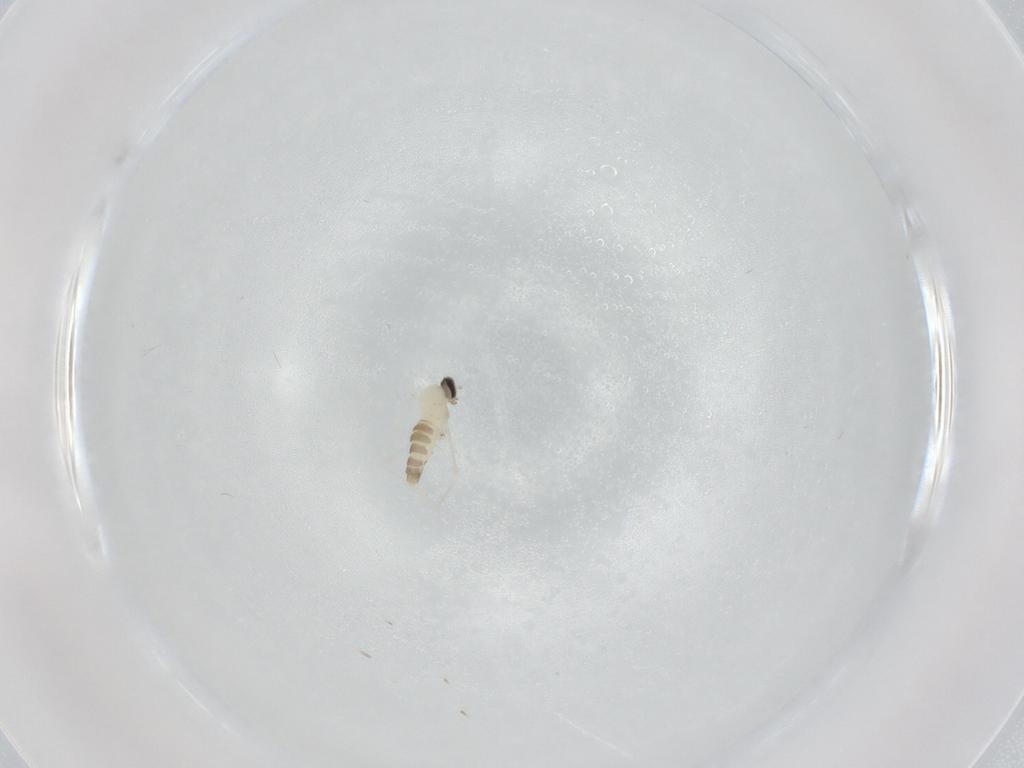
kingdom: Animalia
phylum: Arthropoda
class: Insecta
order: Diptera
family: Cecidomyiidae
